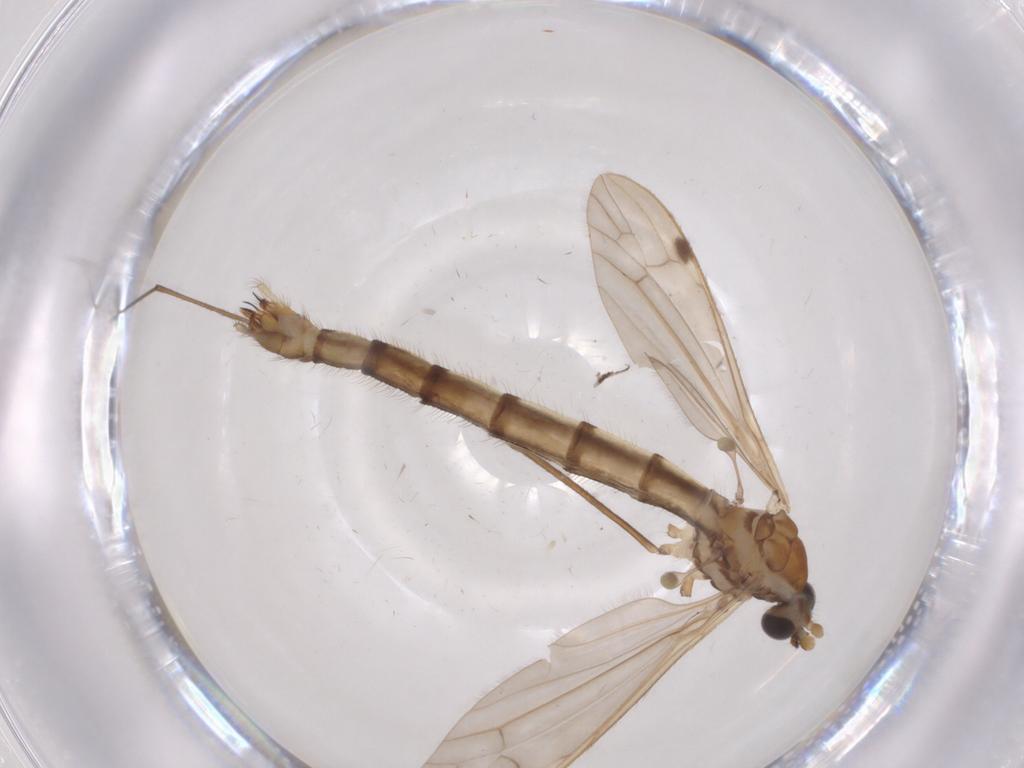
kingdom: Animalia
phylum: Arthropoda
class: Insecta
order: Diptera
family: Limoniidae
